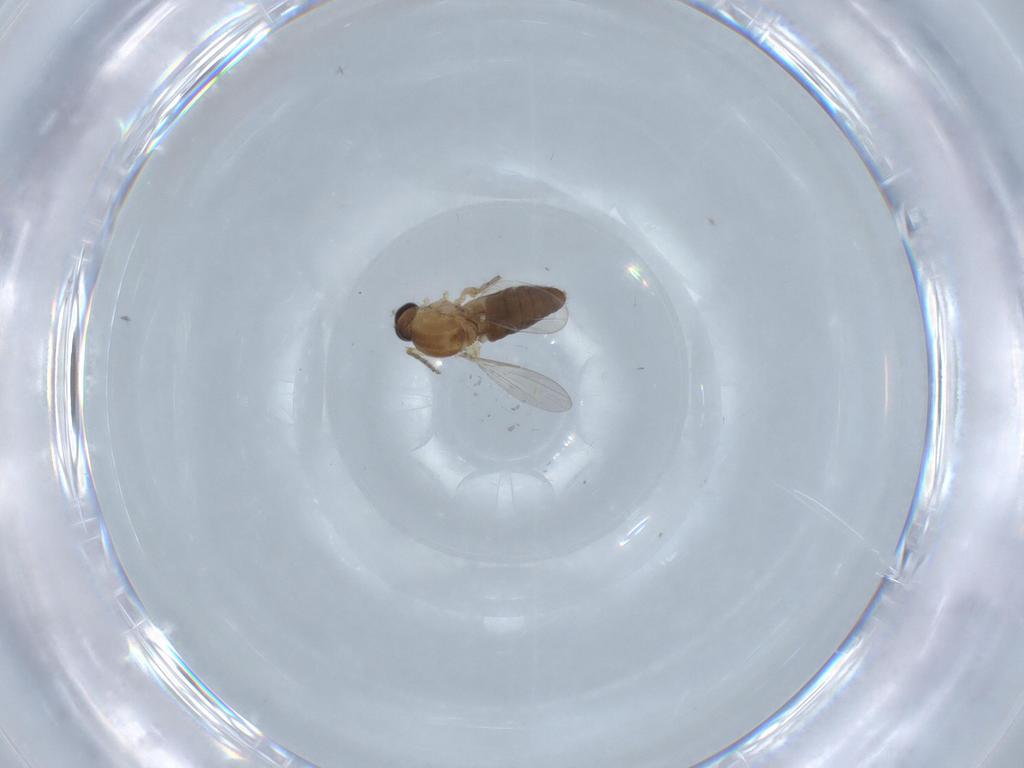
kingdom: Animalia
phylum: Arthropoda
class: Insecta
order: Diptera
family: Ceratopogonidae
